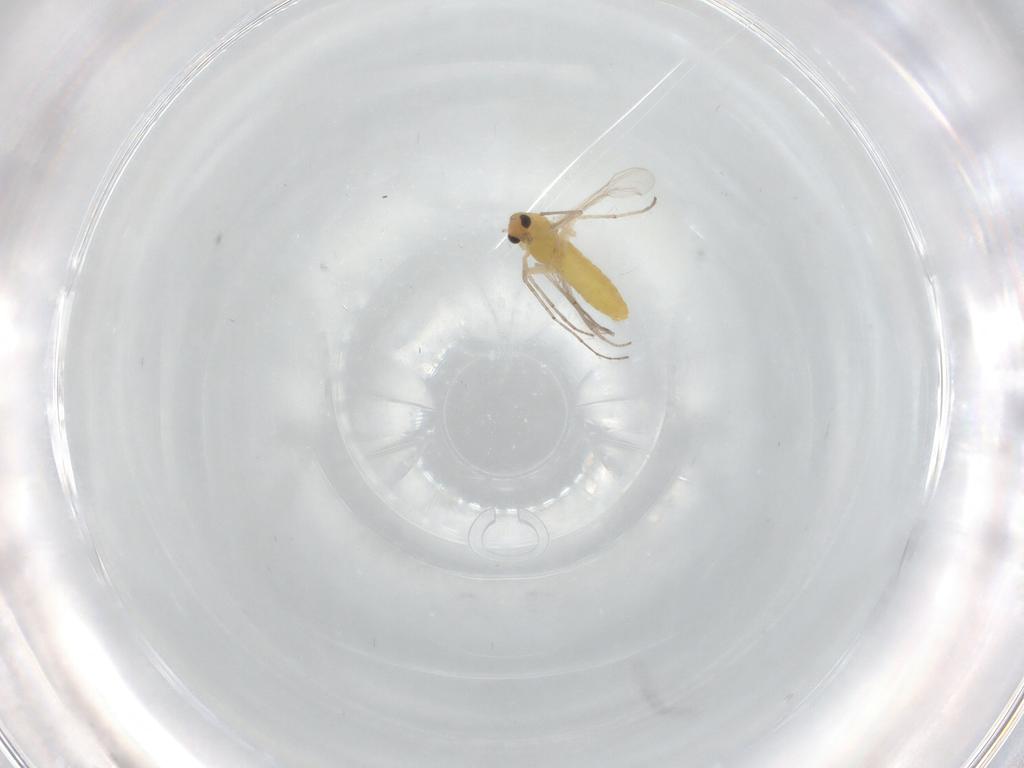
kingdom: Animalia
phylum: Arthropoda
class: Insecta
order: Diptera
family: Chironomidae
